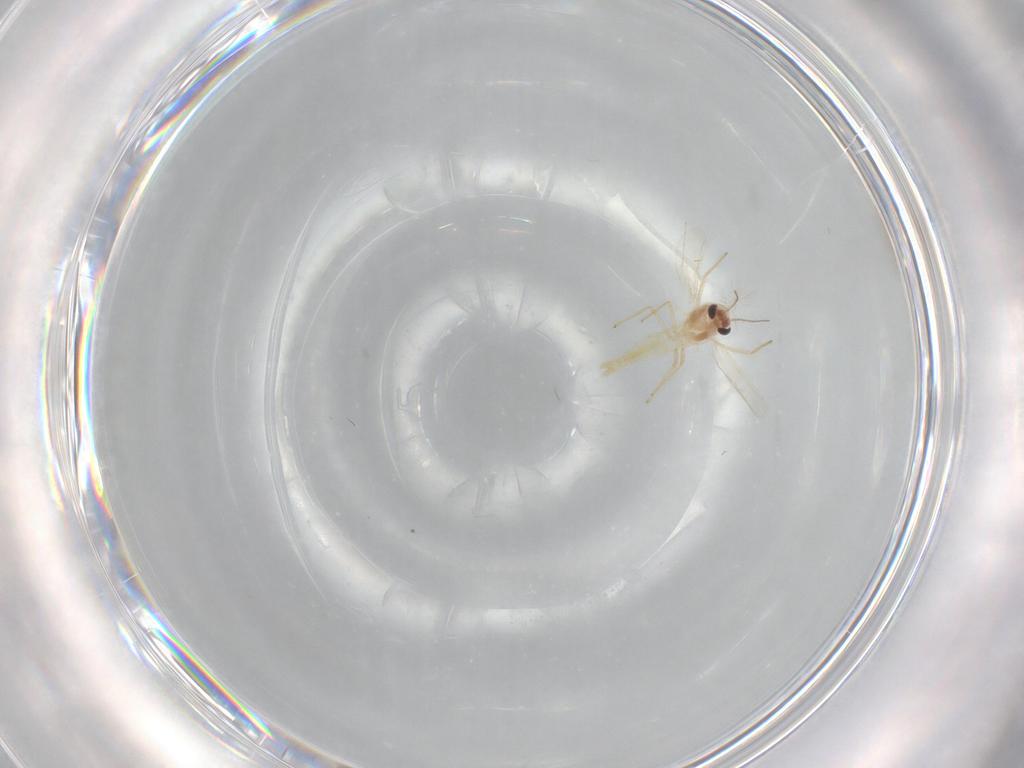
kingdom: Animalia
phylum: Arthropoda
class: Insecta
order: Diptera
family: Chironomidae
